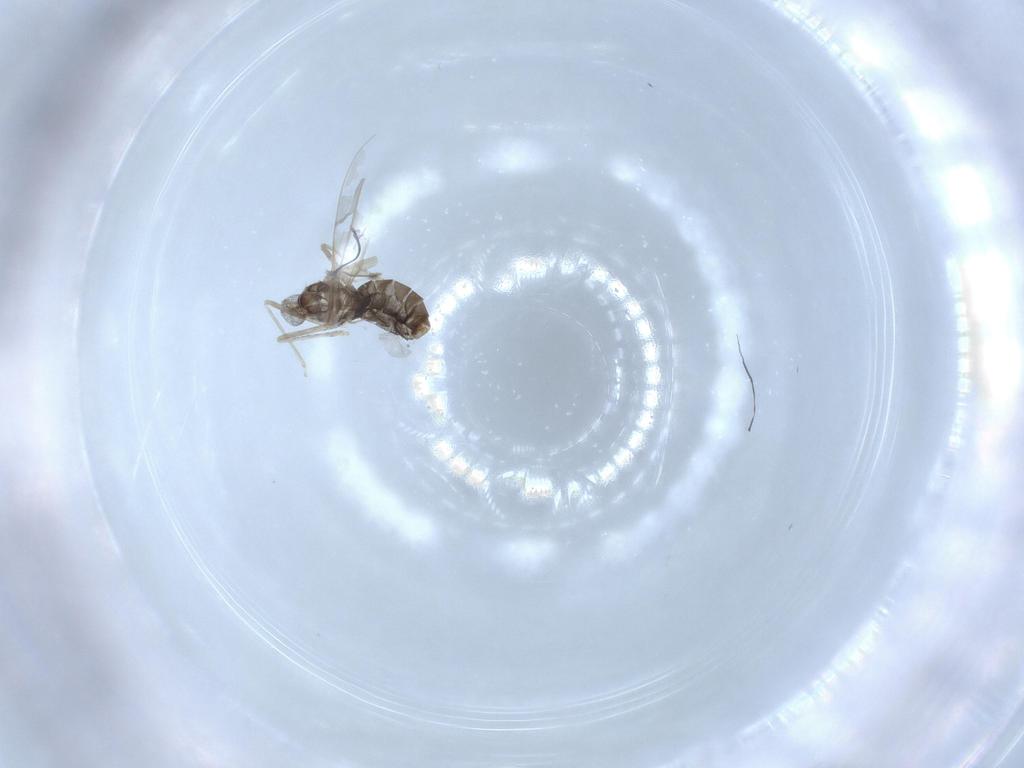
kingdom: Animalia
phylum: Arthropoda
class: Insecta
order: Diptera
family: Cecidomyiidae
